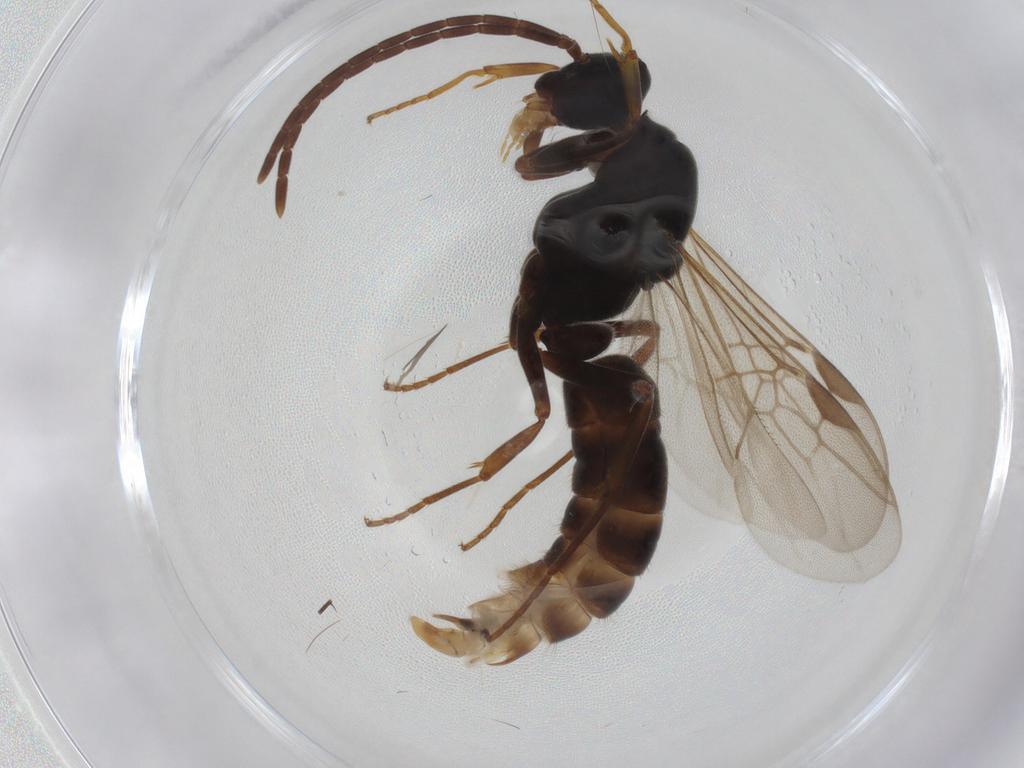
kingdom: Animalia
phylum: Arthropoda
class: Insecta
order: Hymenoptera
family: Formicidae
